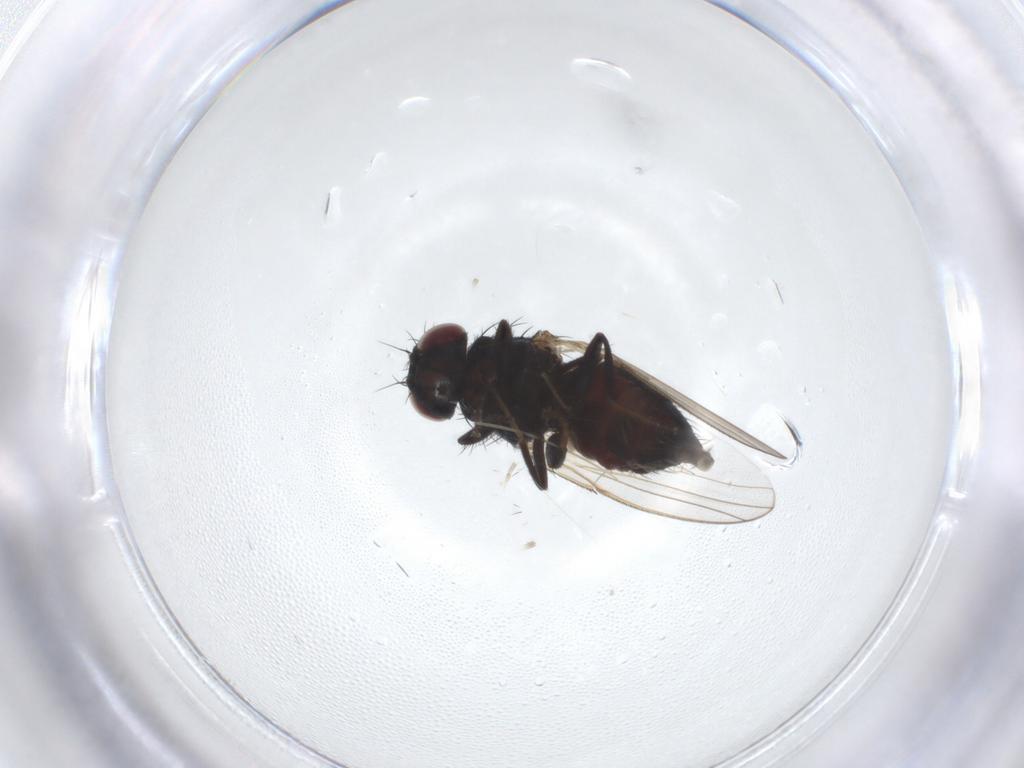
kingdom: Animalia
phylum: Arthropoda
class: Insecta
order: Diptera
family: Carnidae
